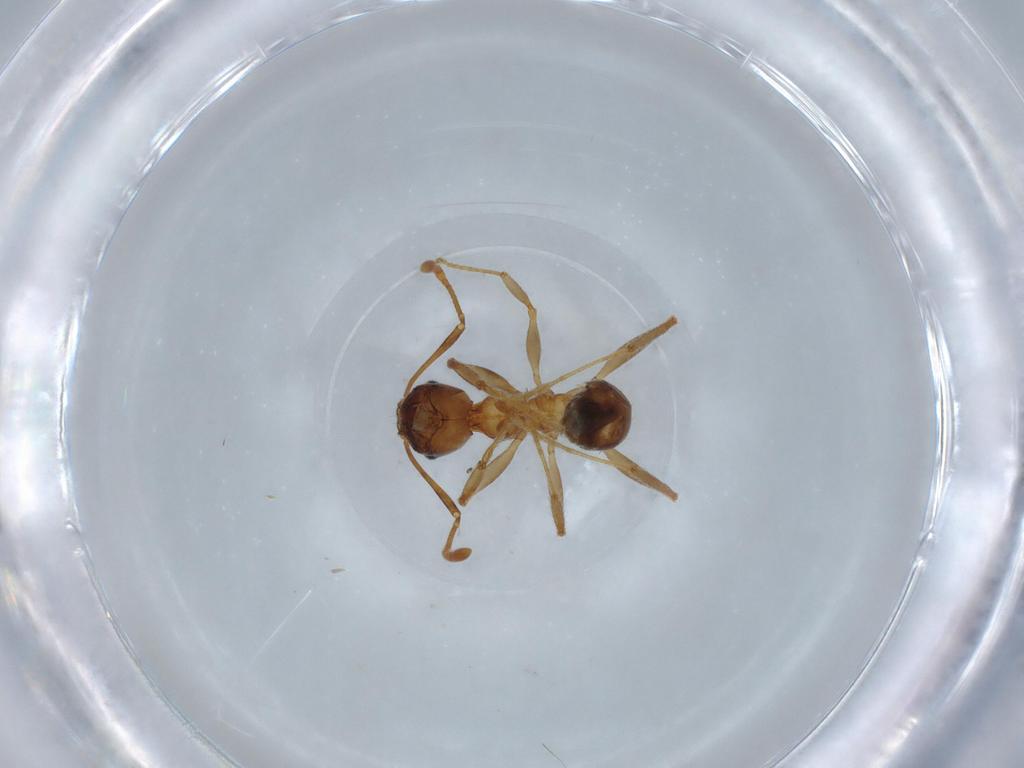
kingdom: Animalia
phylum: Arthropoda
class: Insecta
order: Hymenoptera
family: Formicidae
